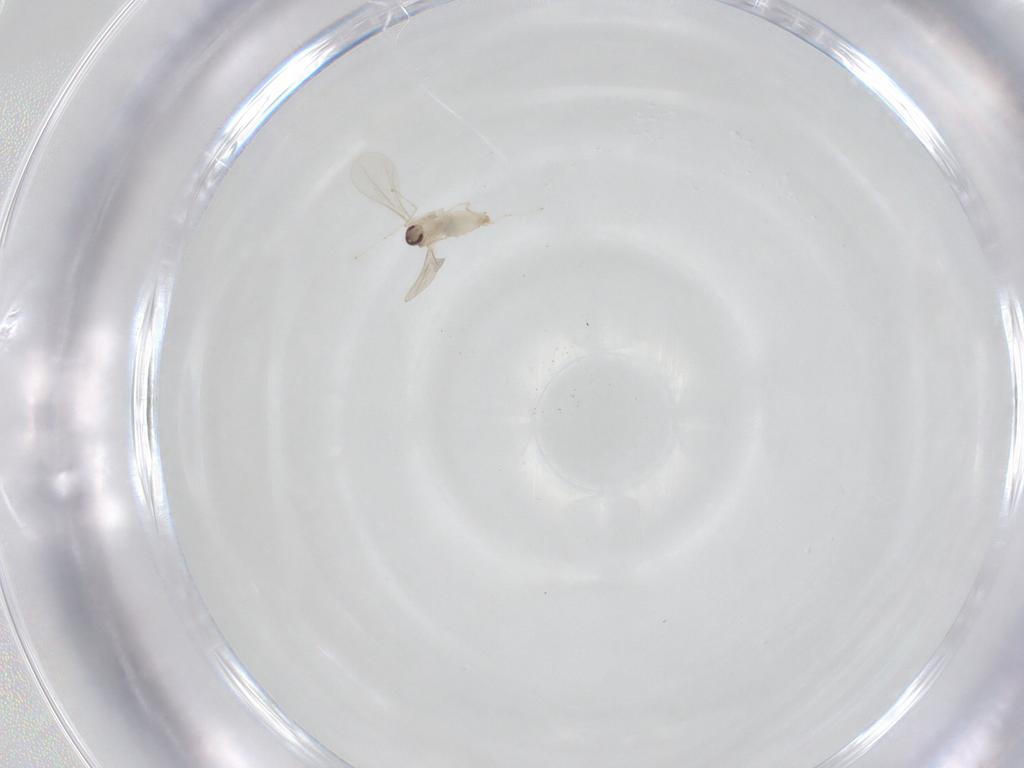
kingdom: Animalia
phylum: Arthropoda
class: Insecta
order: Diptera
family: Cecidomyiidae
